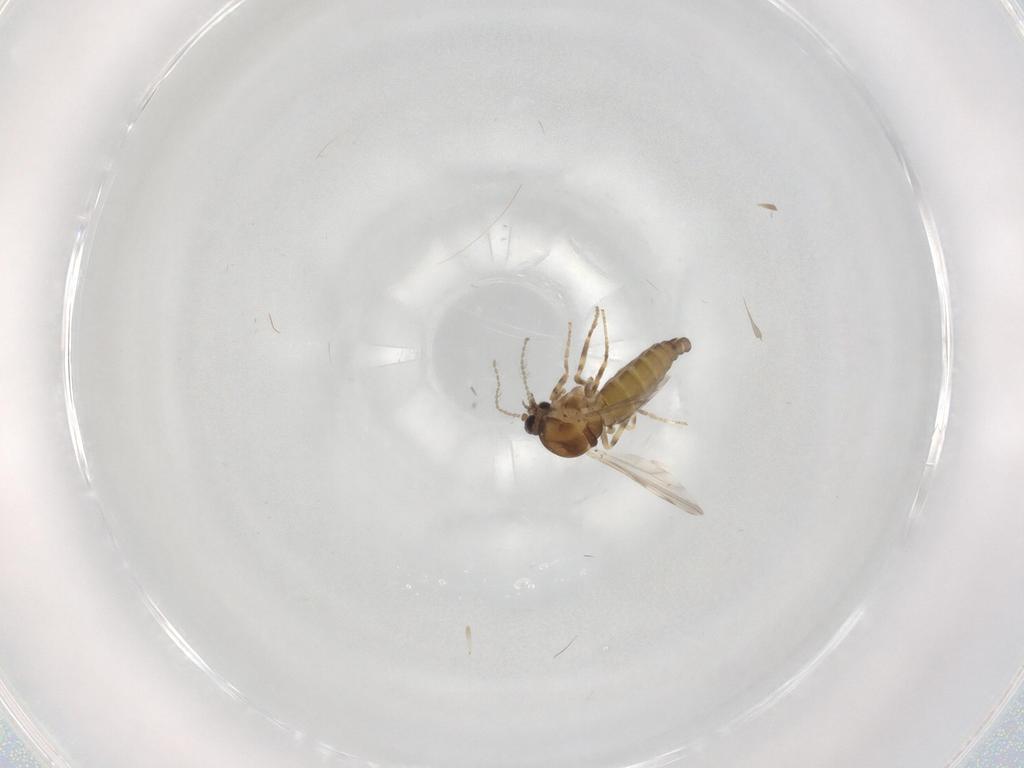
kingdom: Animalia
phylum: Arthropoda
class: Insecta
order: Diptera
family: Ceratopogonidae
